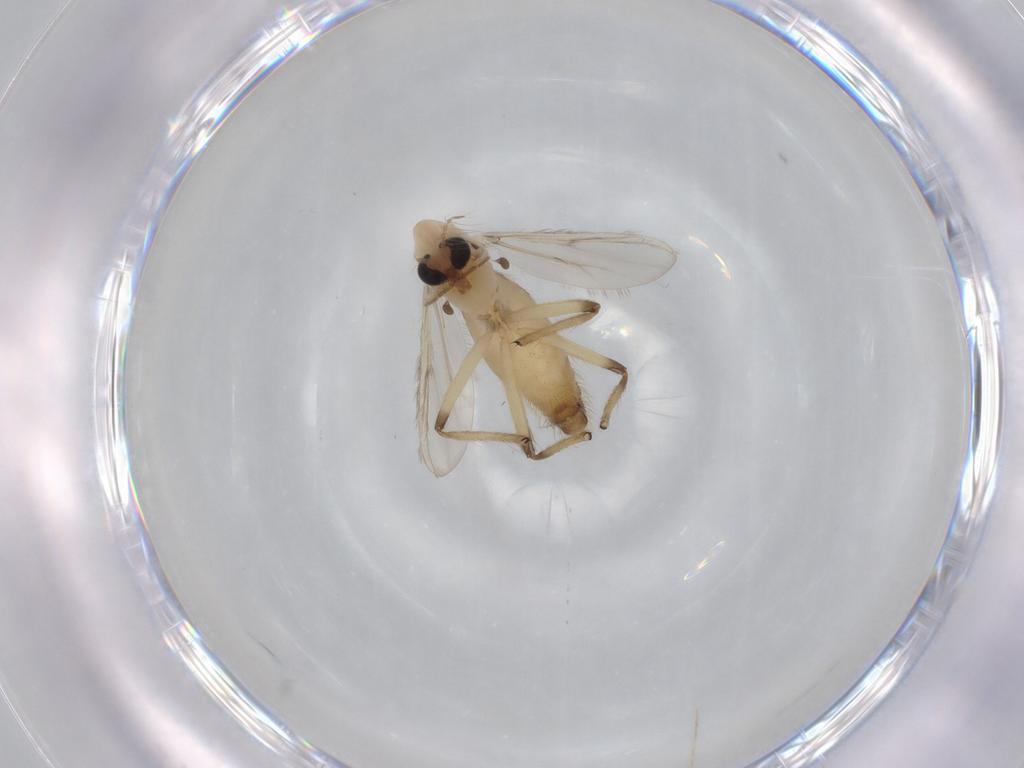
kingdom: Animalia
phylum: Arthropoda
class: Insecta
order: Diptera
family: Chironomidae
